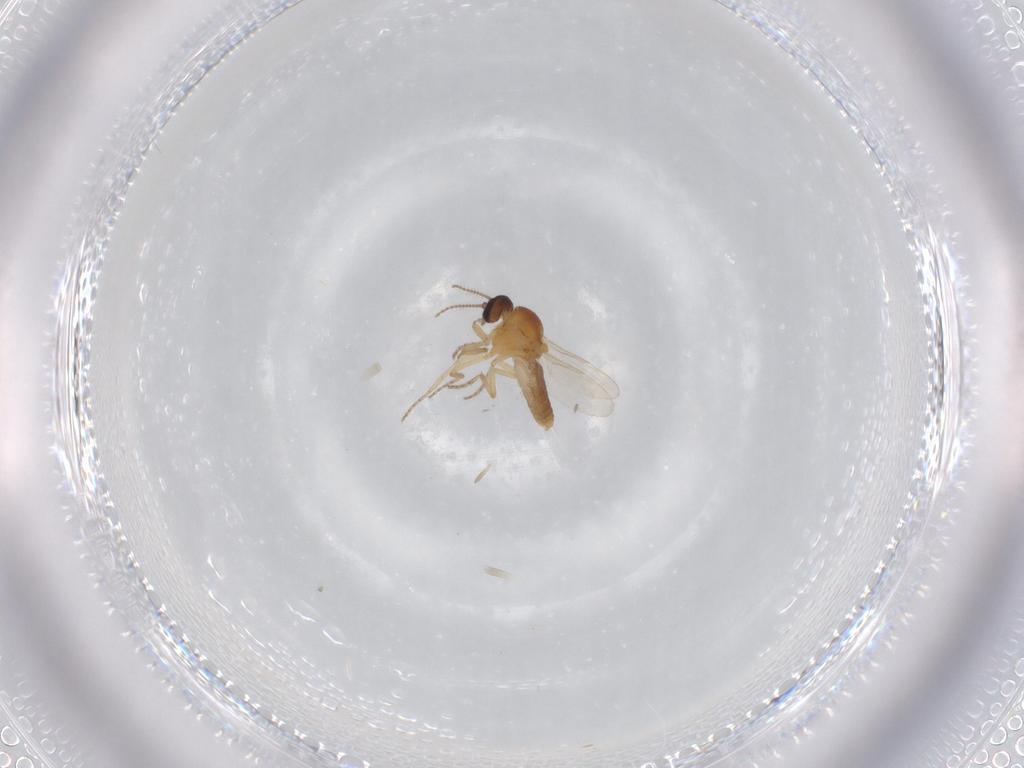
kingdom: Animalia
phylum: Arthropoda
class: Insecta
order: Diptera
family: Ceratopogonidae
